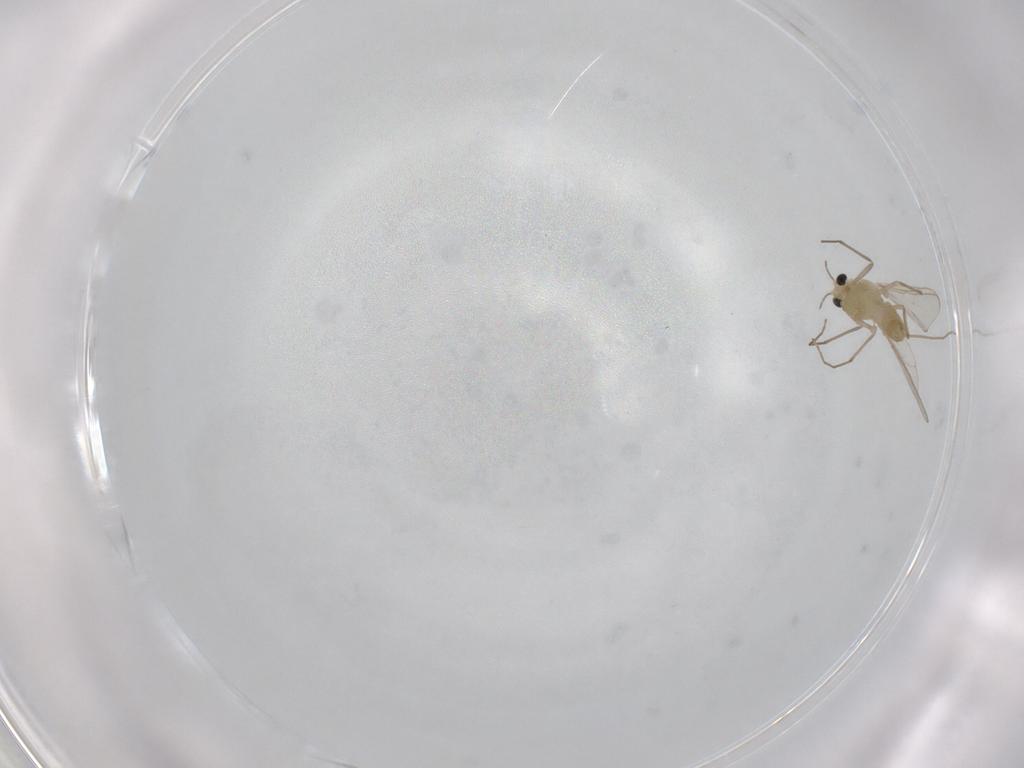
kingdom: Animalia
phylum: Arthropoda
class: Insecta
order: Diptera
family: Chironomidae
